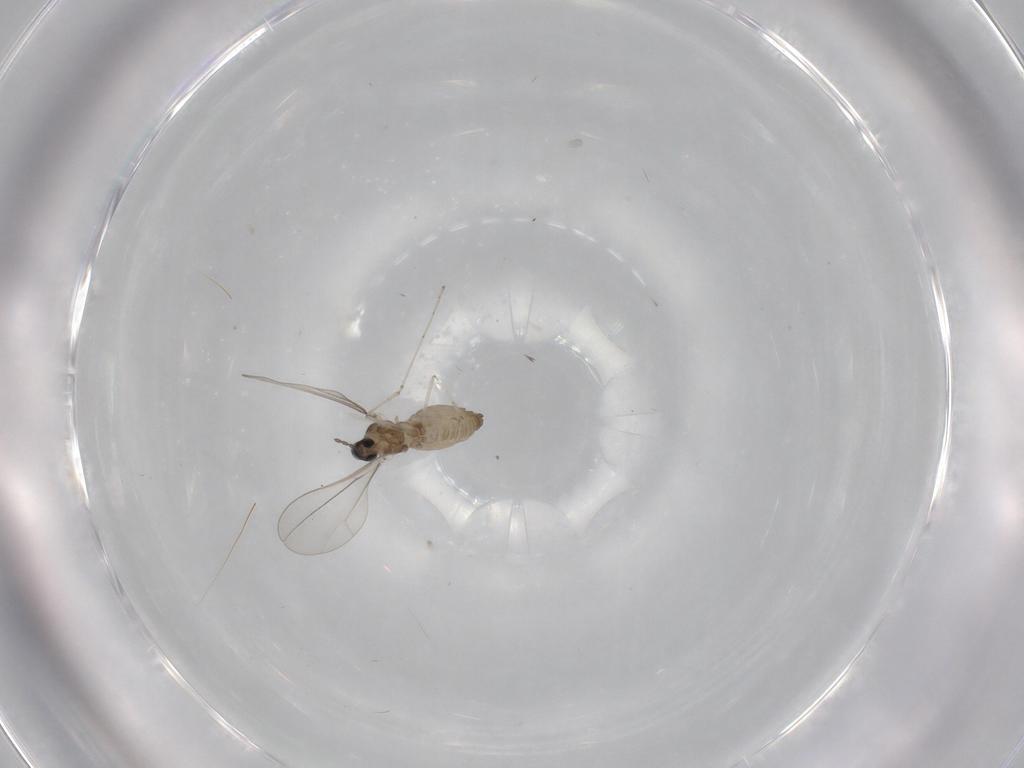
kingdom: Animalia
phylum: Arthropoda
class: Insecta
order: Diptera
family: Cecidomyiidae
